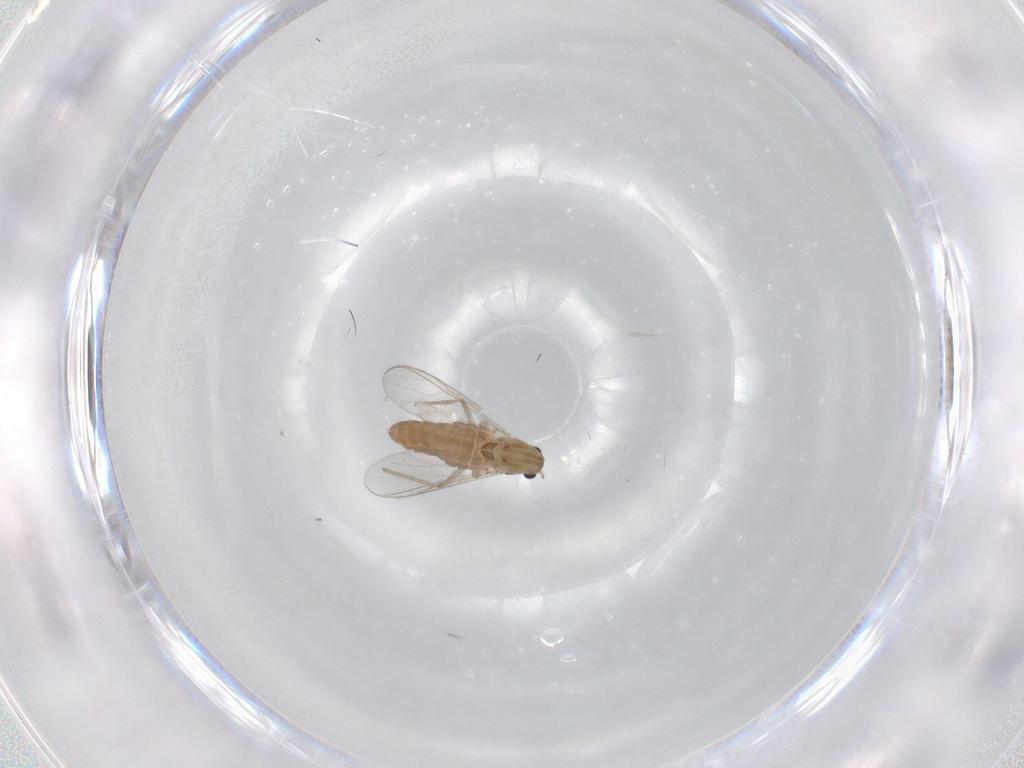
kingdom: Animalia
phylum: Arthropoda
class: Insecta
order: Diptera
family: Chironomidae
